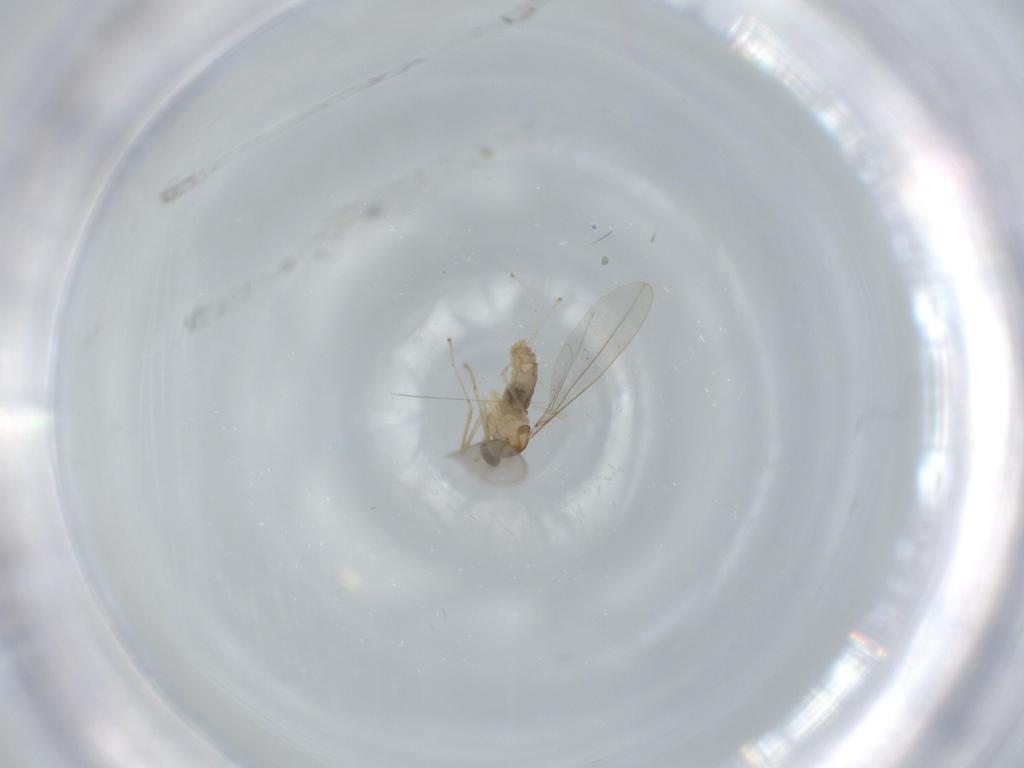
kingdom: Animalia
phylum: Arthropoda
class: Insecta
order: Diptera
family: Cecidomyiidae
